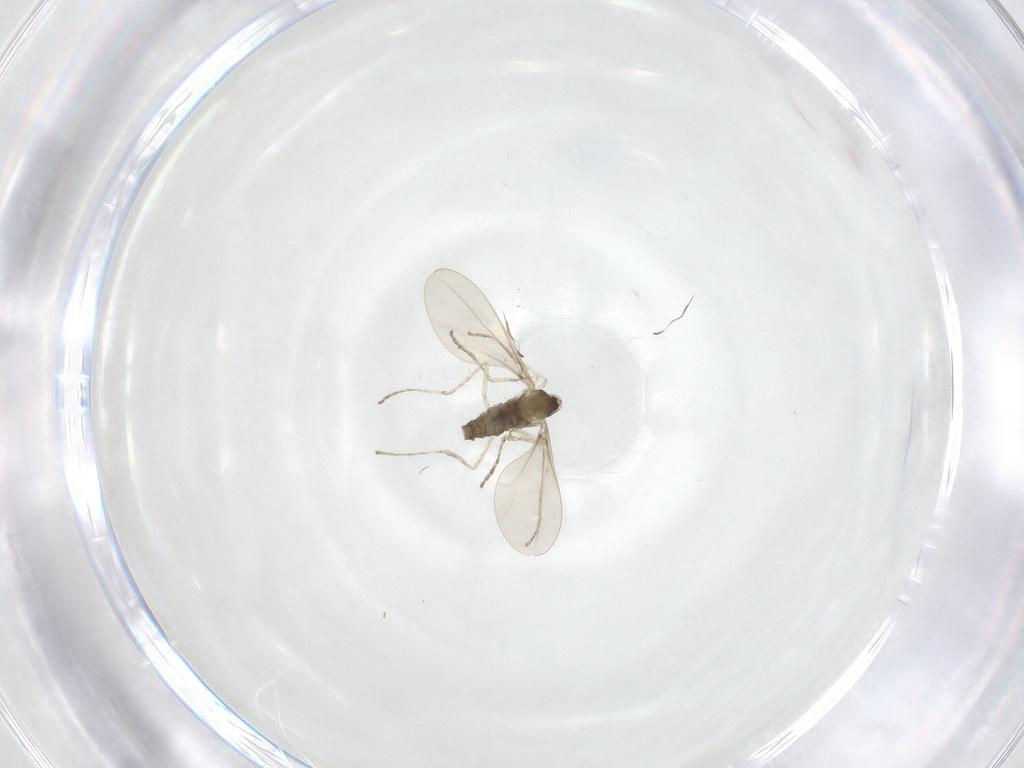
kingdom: Animalia
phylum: Arthropoda
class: Insecta
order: Diptera
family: Cecidomyiidae
